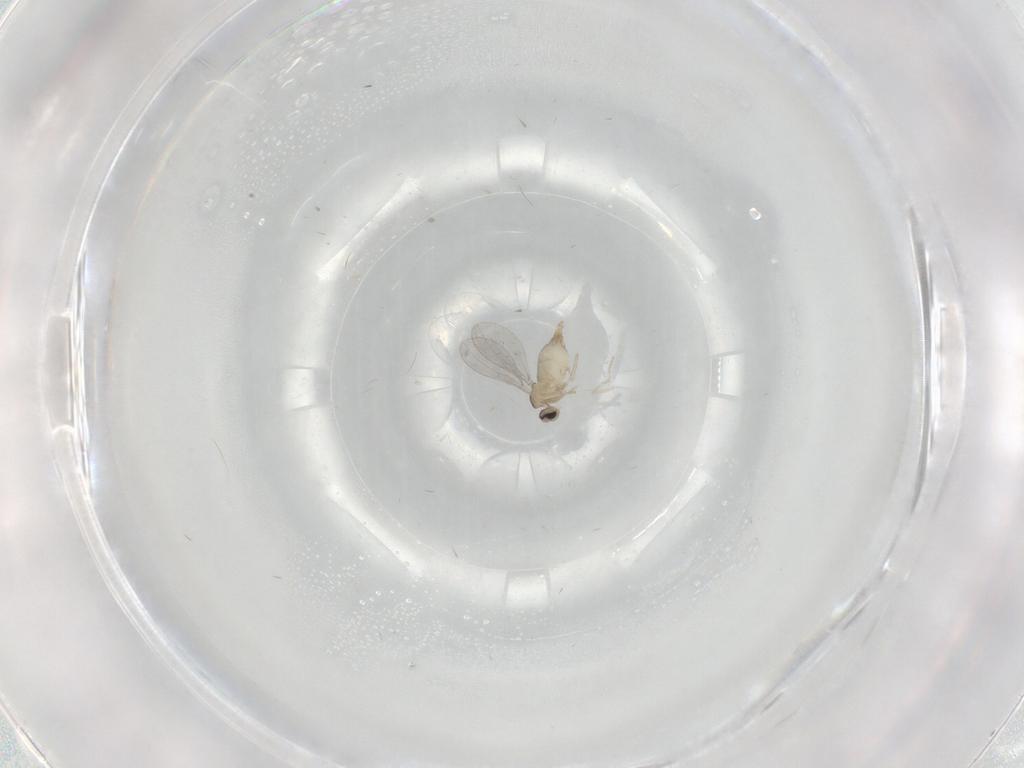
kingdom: Animalia
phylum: Arthropoda
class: Insecta
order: Diptera
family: Cecidomyiidae
